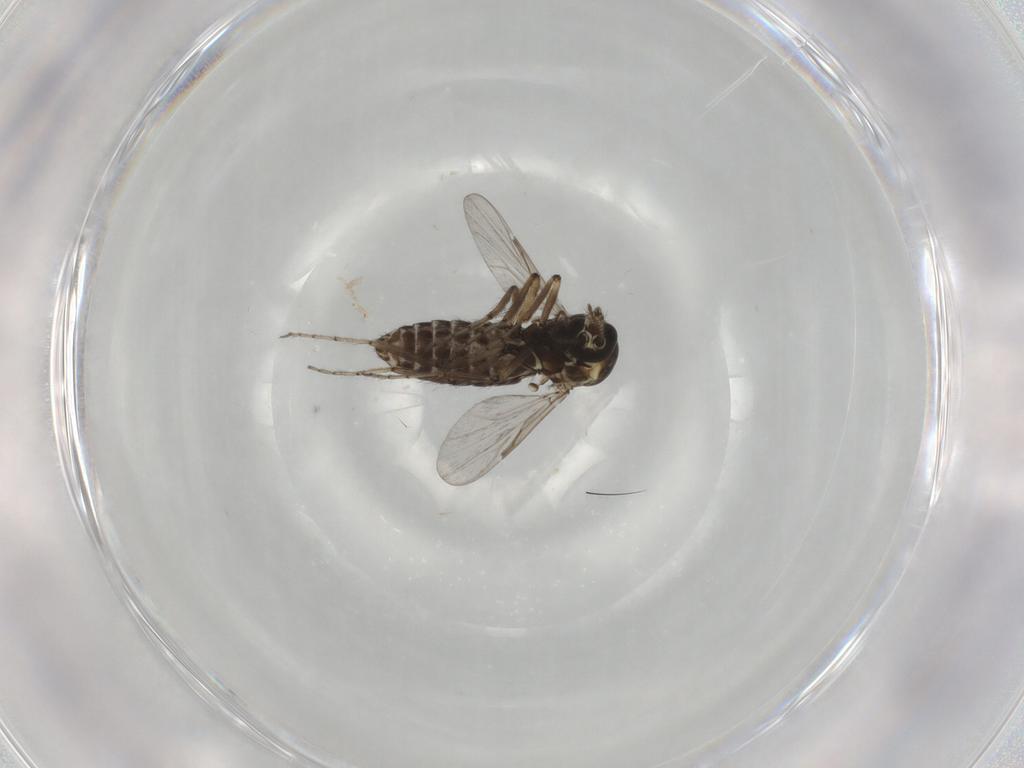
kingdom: Animalia
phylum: Arthropoda
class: Insecta
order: Diptera
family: Ceratopogonidae
